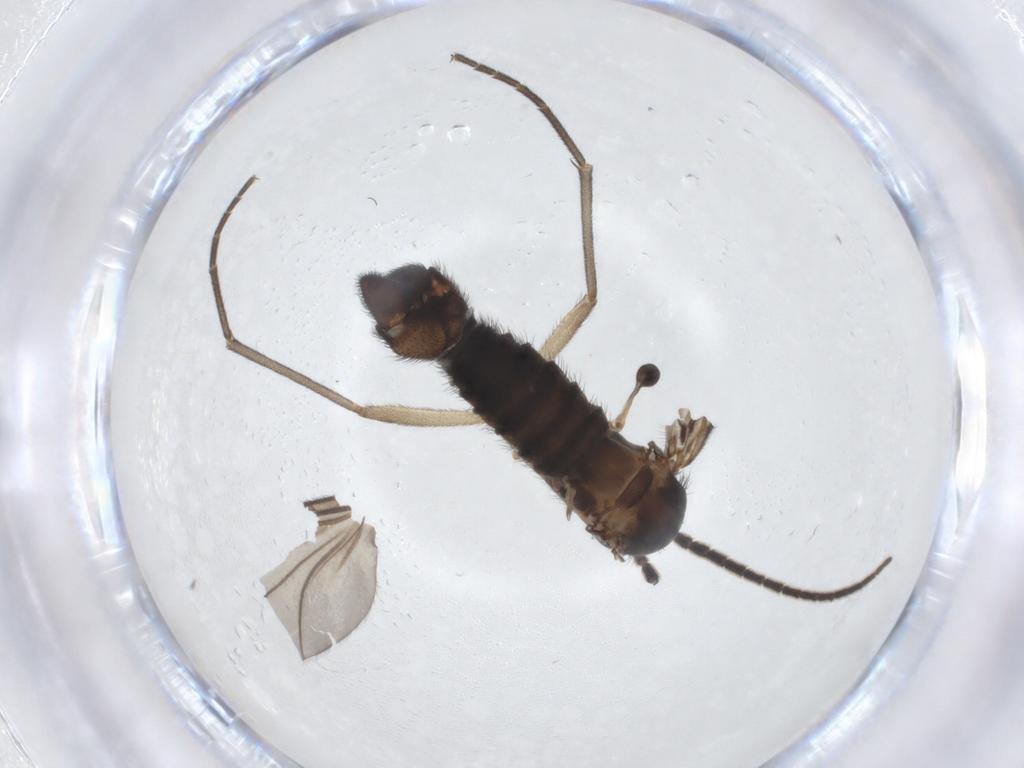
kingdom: Animalia
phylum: Arthropoda
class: Insecta
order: Diptera
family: Sciaridae
